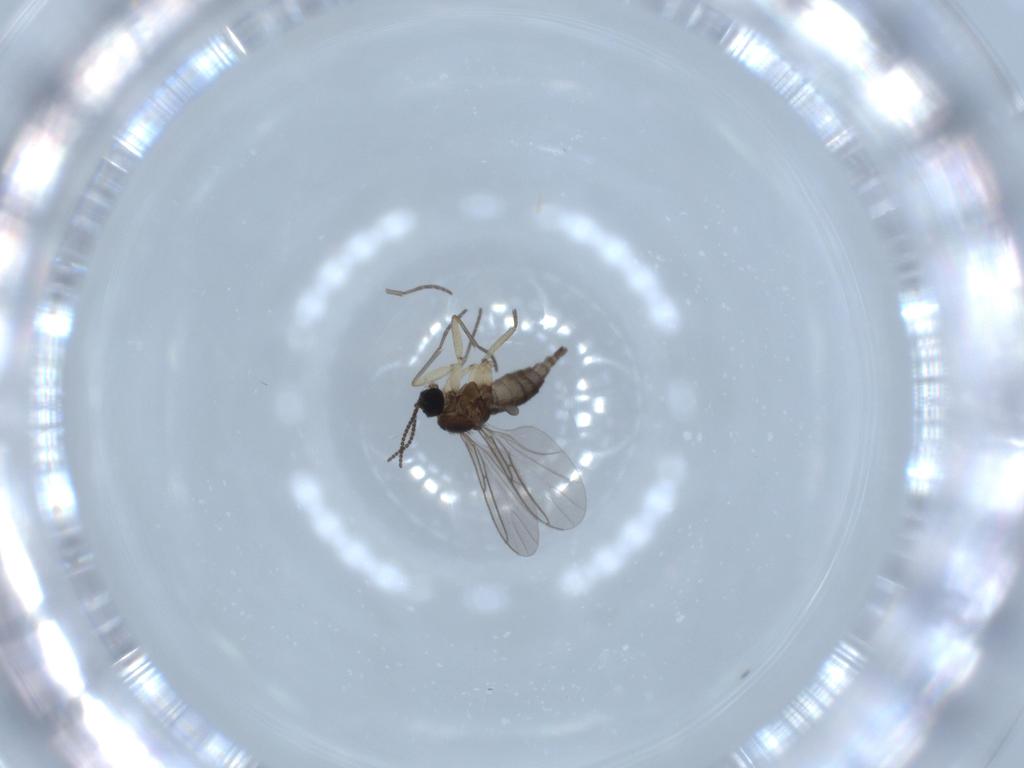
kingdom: Animalia
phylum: Arthropoda
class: Insecta
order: Diptera
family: Sciaridae
